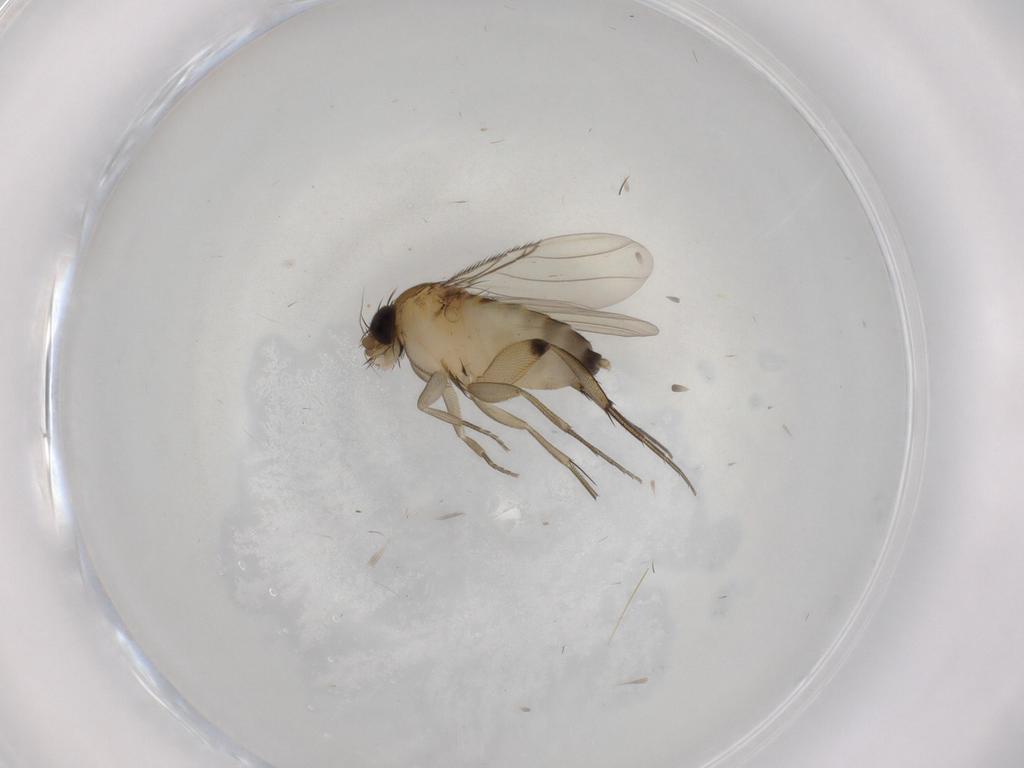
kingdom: Animalia
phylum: Arthropoda
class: Insecta
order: Diptera
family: Phoridae
